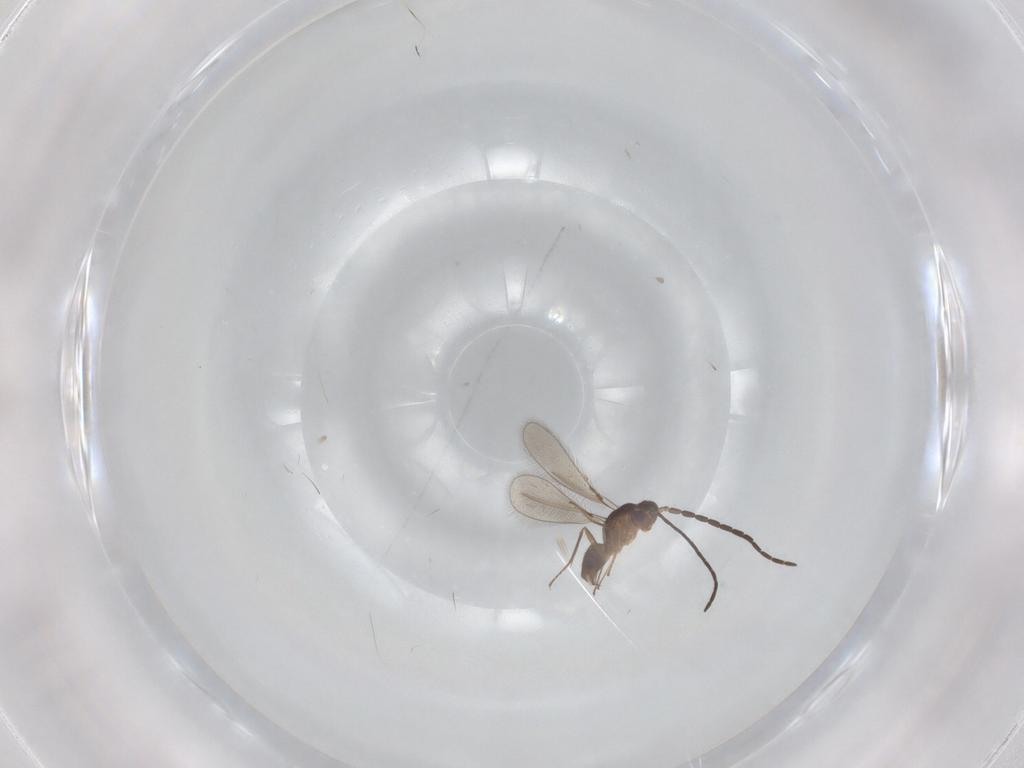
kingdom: Animalia
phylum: Arthropoda
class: Insecta
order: Hymenoptera
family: Mymaridae
